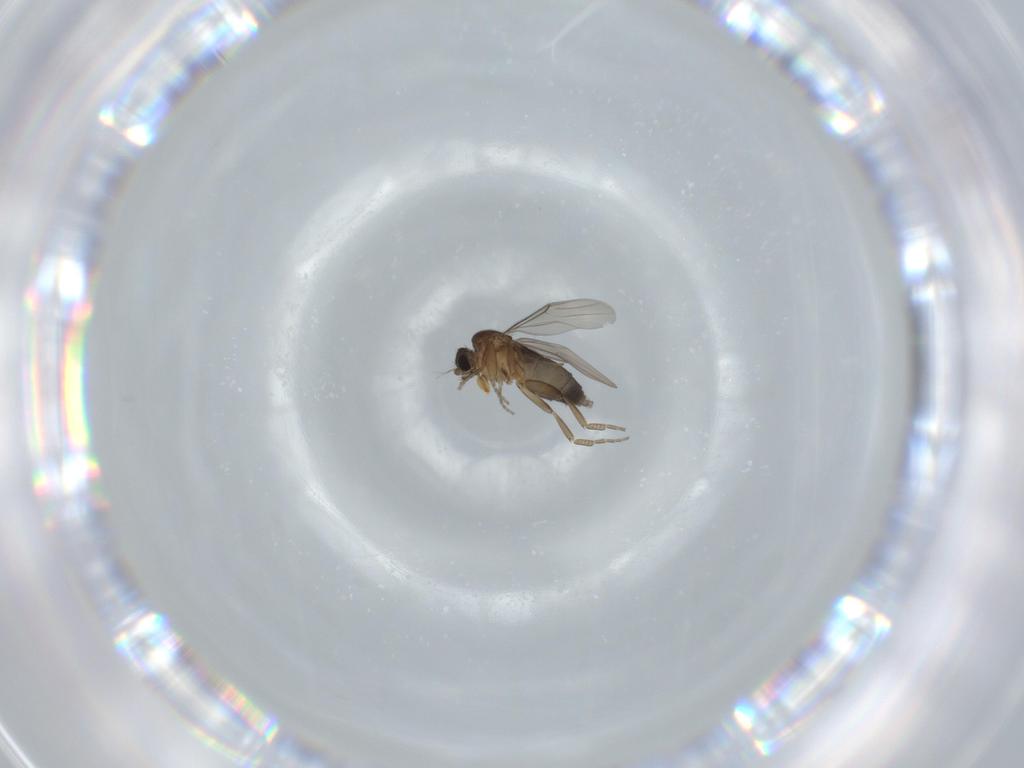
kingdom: Animalia
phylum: Arthropoda
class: Insecta
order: Diptera
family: Phoridae
